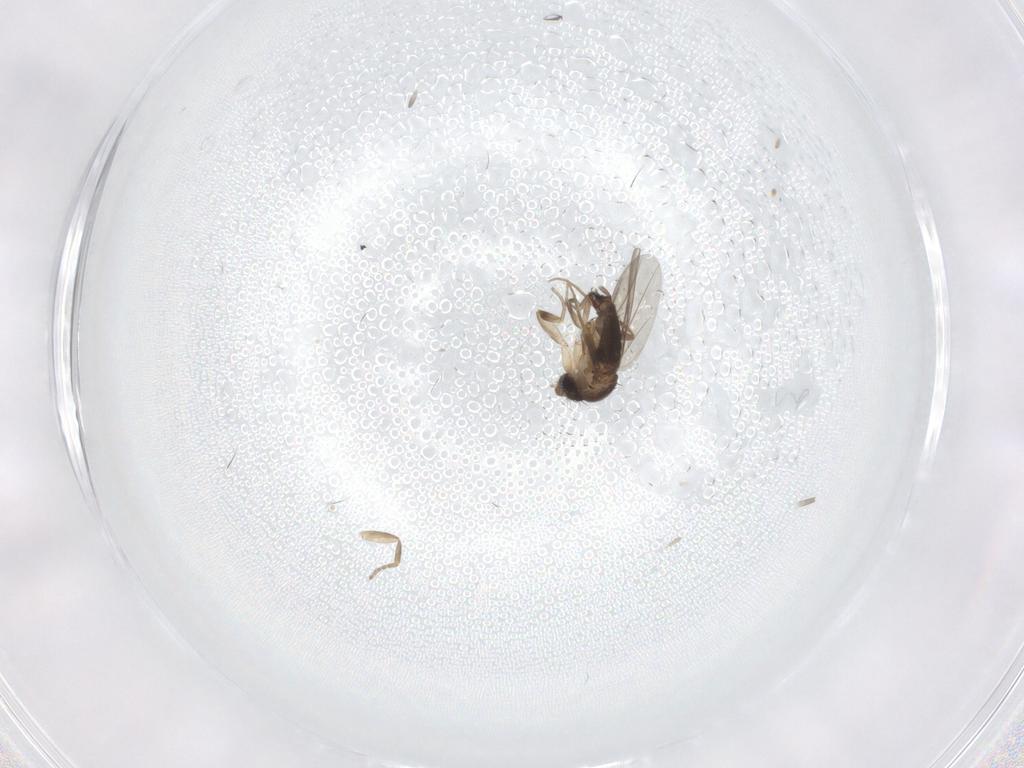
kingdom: Animalia
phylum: Arthropoda
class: Insecta
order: Diptera
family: Phoridae
